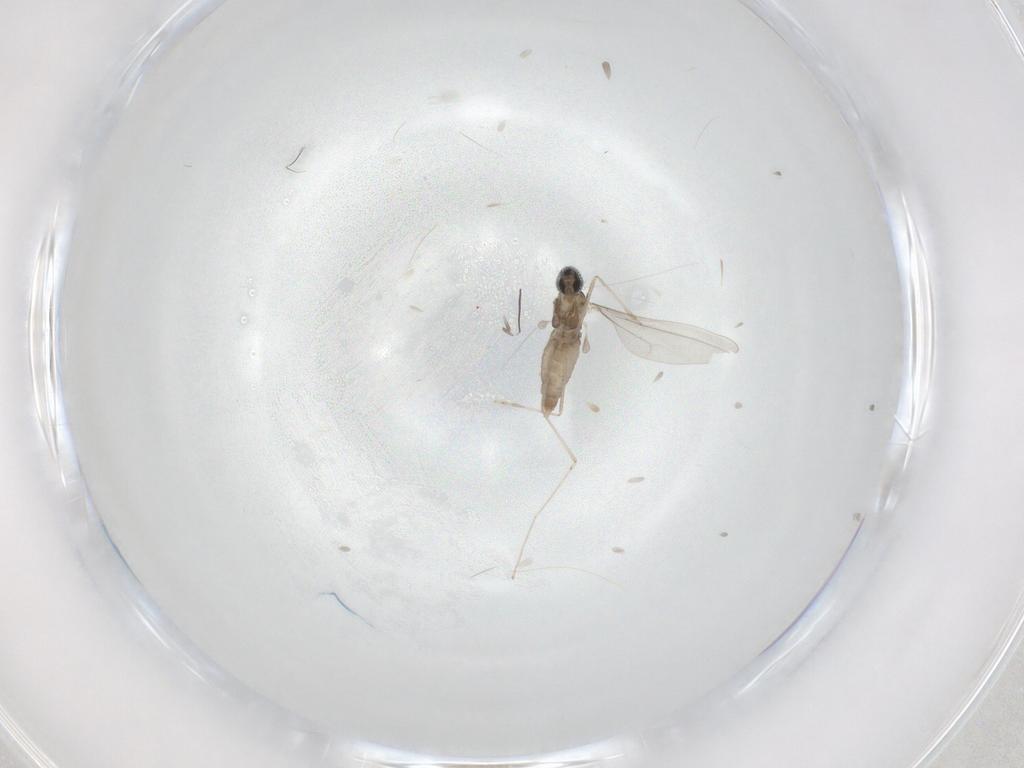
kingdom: Animalia
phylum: Arthropoda
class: Insecta
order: Diptera
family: Cecidomyiidae
